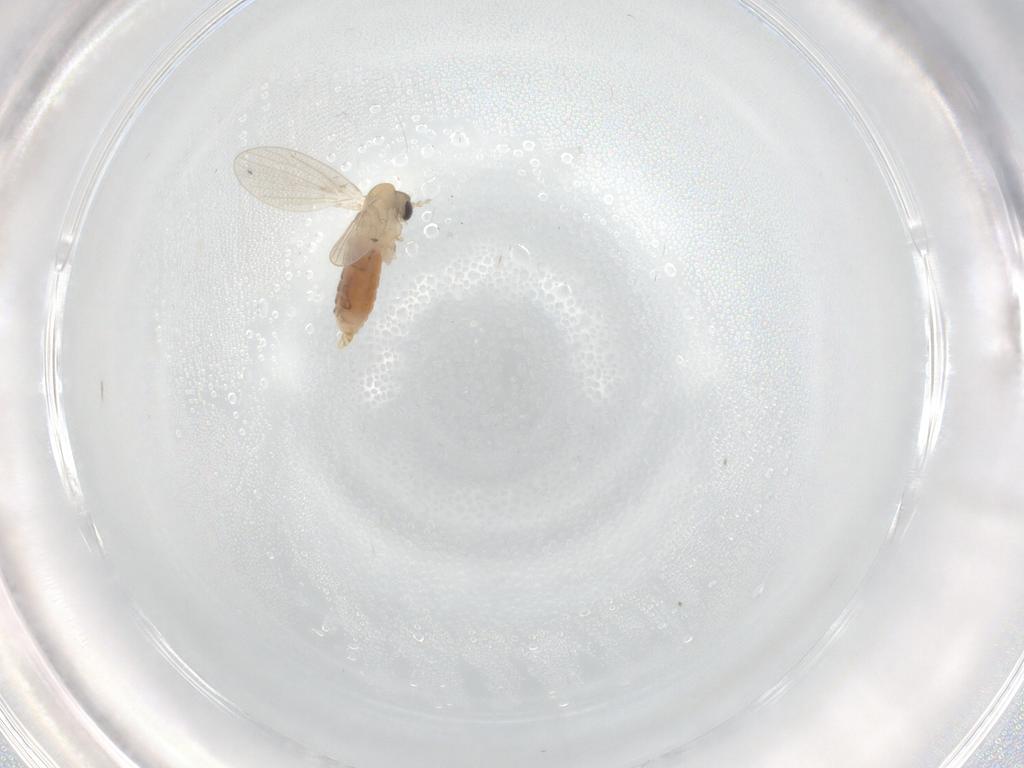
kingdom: Animalia
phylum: Arthropoda
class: Insecta
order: Diptera
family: Psychodidae
